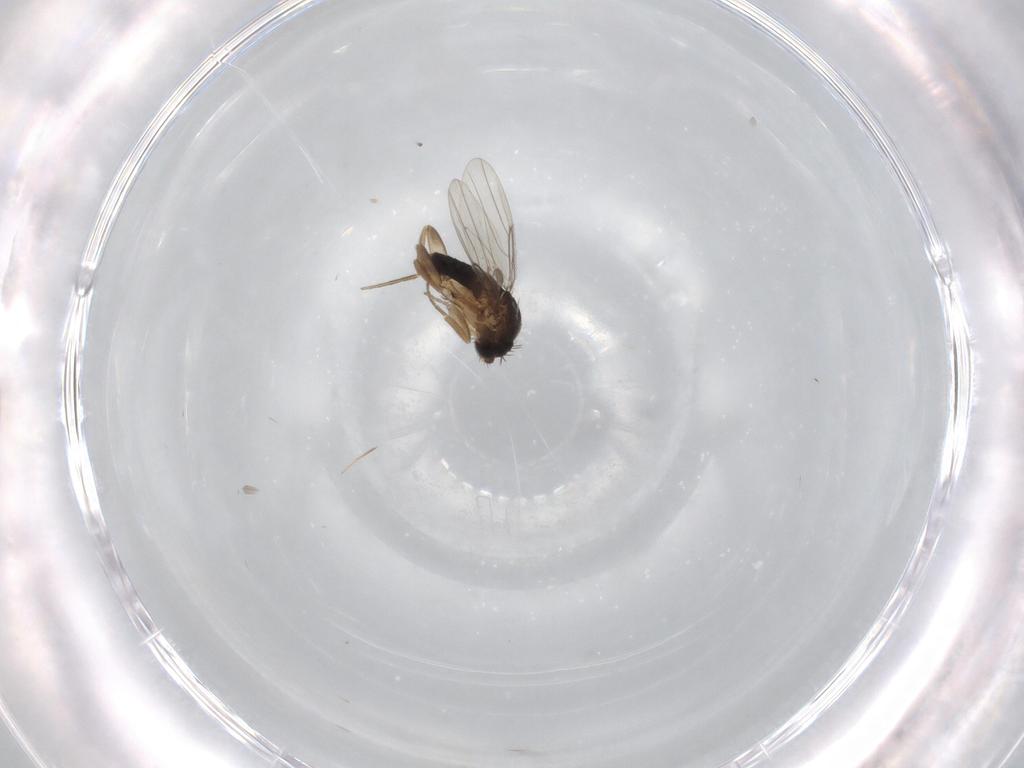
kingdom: Animalia
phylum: Arthropoda
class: Insecta
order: Diptera
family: Phoridae
